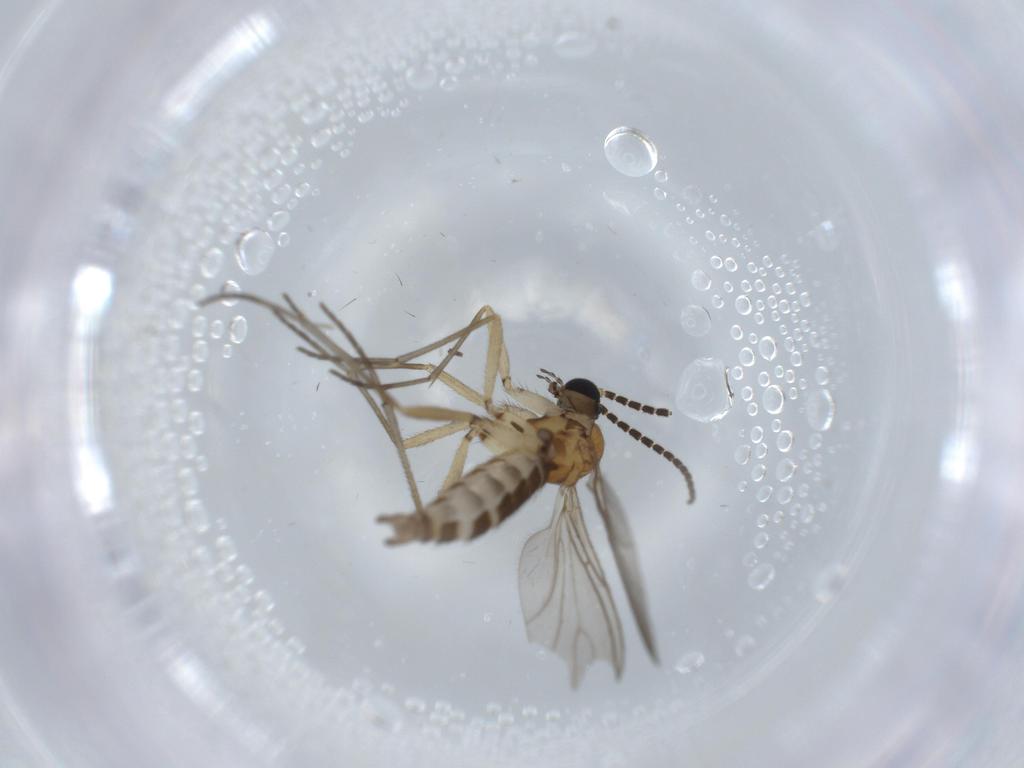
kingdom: Animalia
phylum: Arthropoda
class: Insecta
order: Diptera
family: Sciaridae
